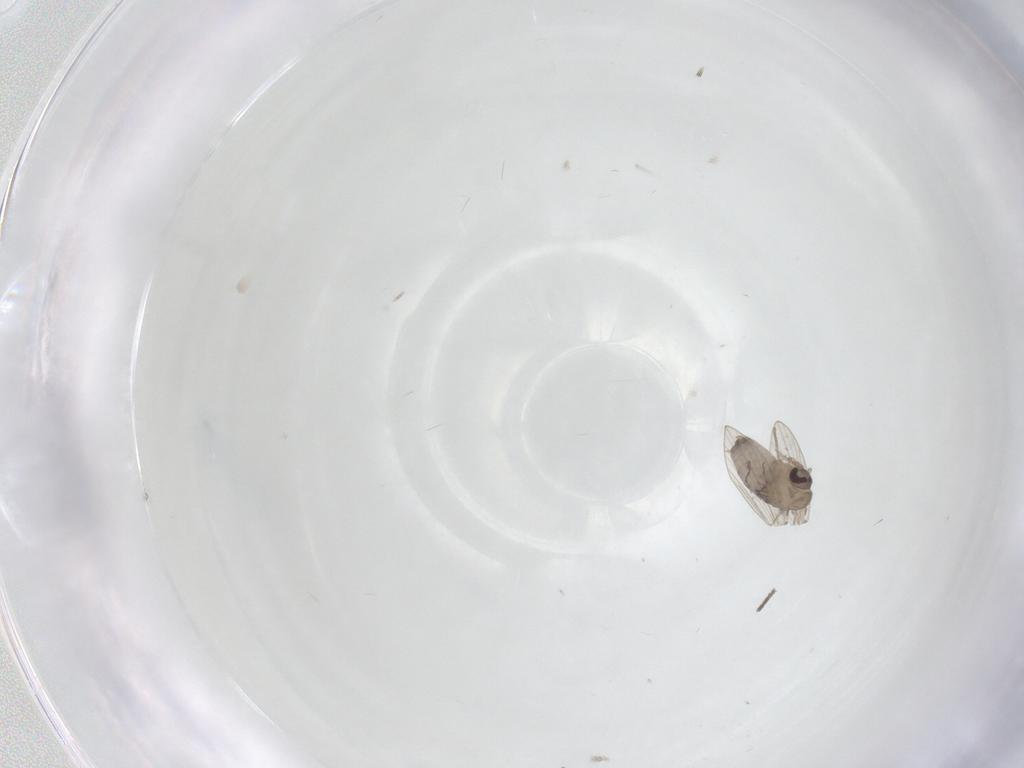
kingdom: Animalia
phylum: Arthropoda
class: Insecta
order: Diptera
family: Psychodidae
